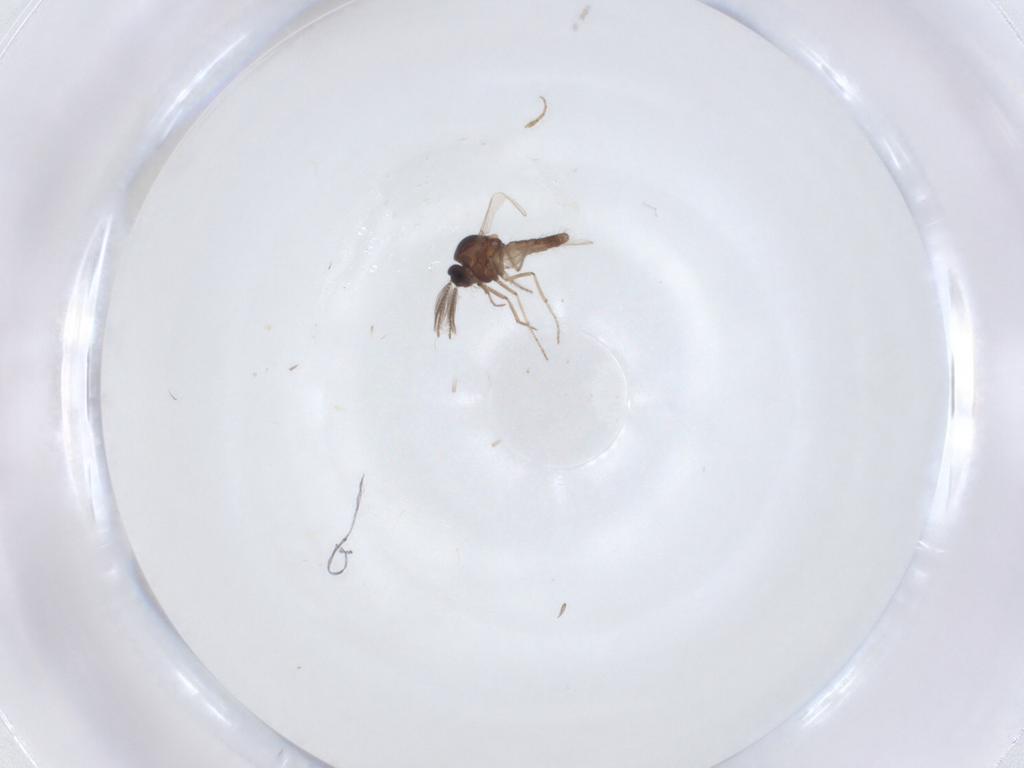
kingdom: Animalia
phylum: Arthropoda
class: Insecta
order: Diptera
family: Ceratopogonidae
